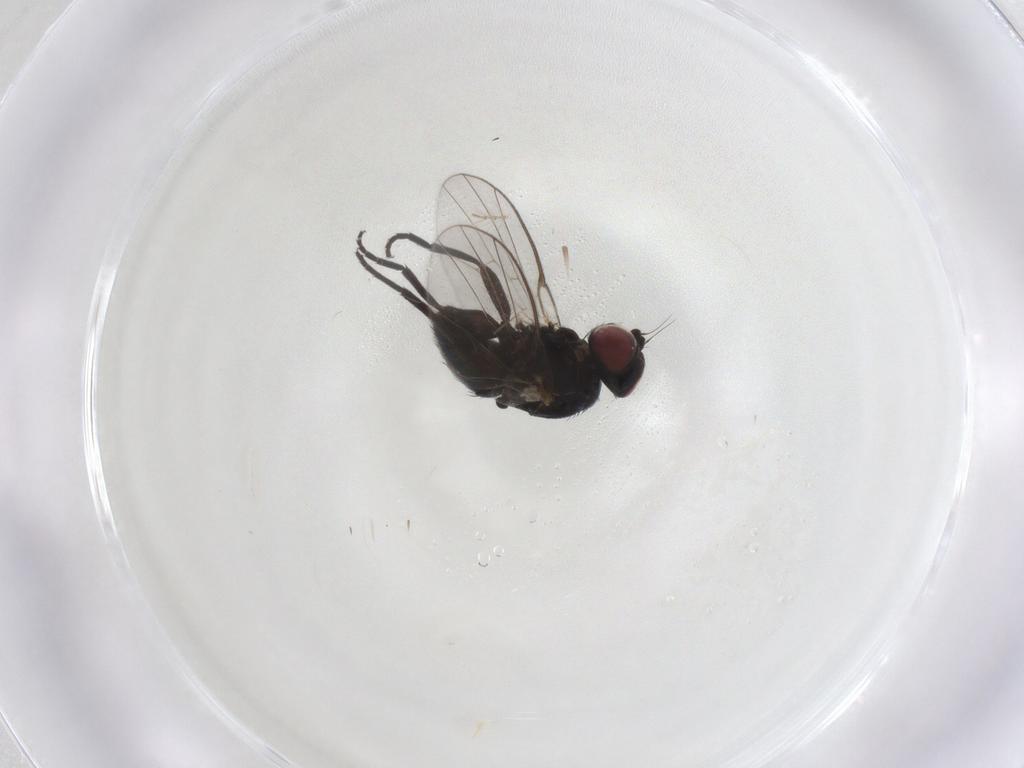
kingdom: Animalia
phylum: Arthropoda
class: Insecta
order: Diptera
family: Agromyzidae
